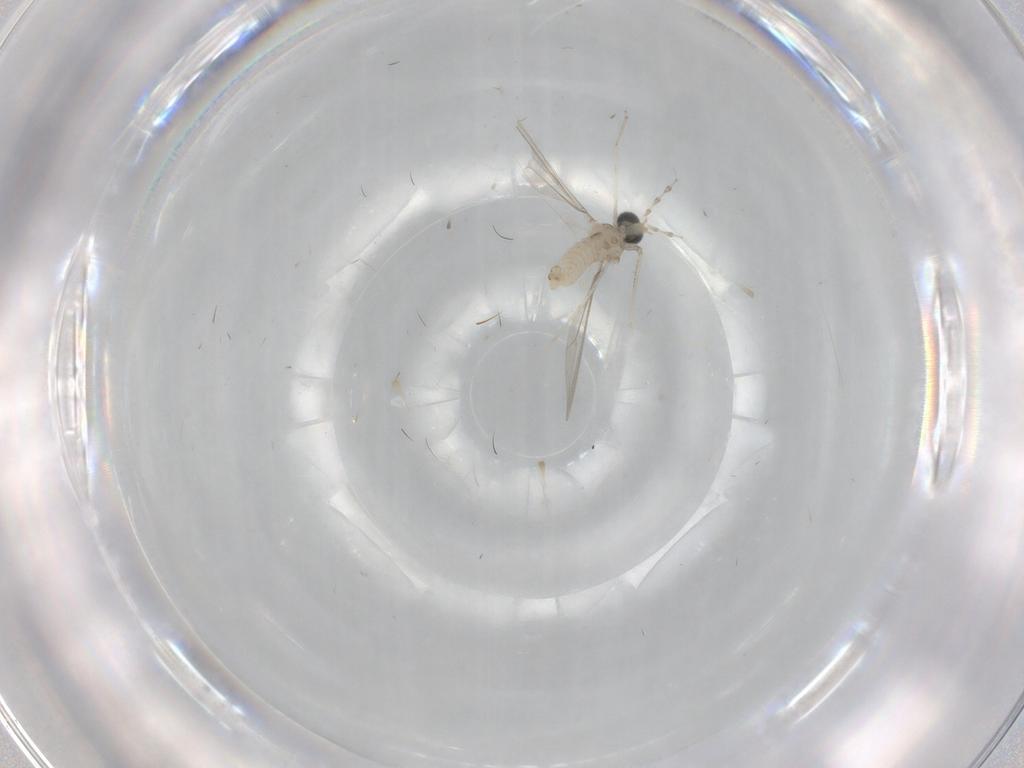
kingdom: Animalia
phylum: Arthropoda
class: Insecta
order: Diptera
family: Cecidomyiidae
